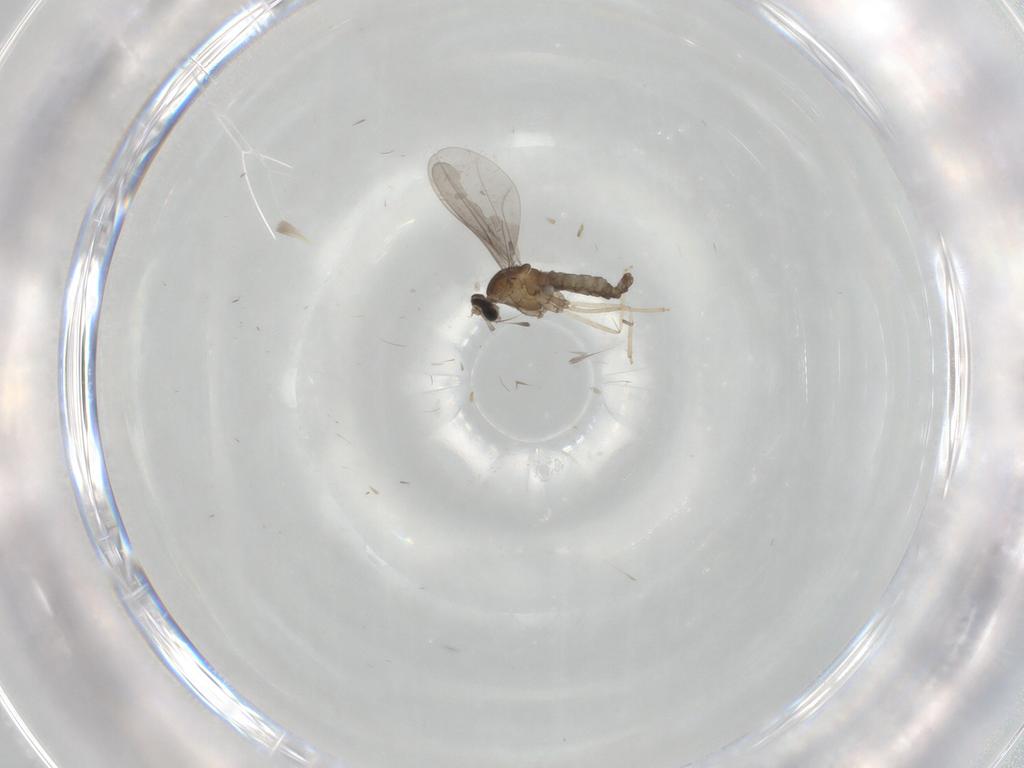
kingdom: Animalia
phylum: Arthropoda
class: Insecta
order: Diptera
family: Cecidomyiidae
